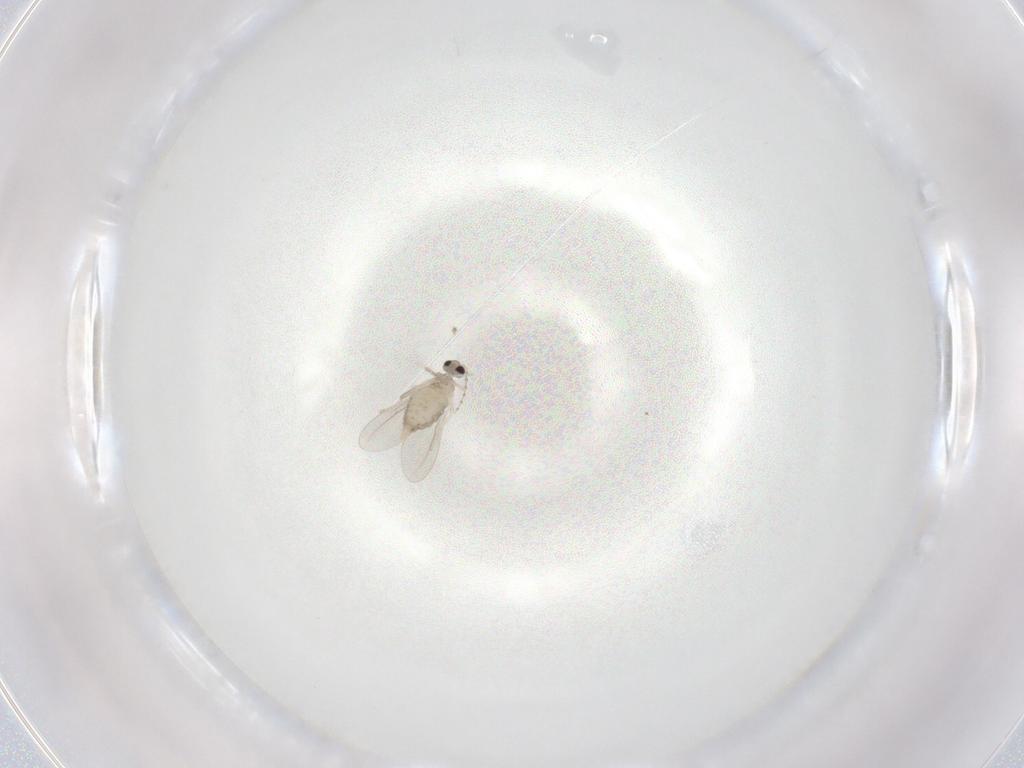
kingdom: Animalia
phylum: Arthropoda
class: Insecta
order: Diptera
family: Cecidomyiidae
